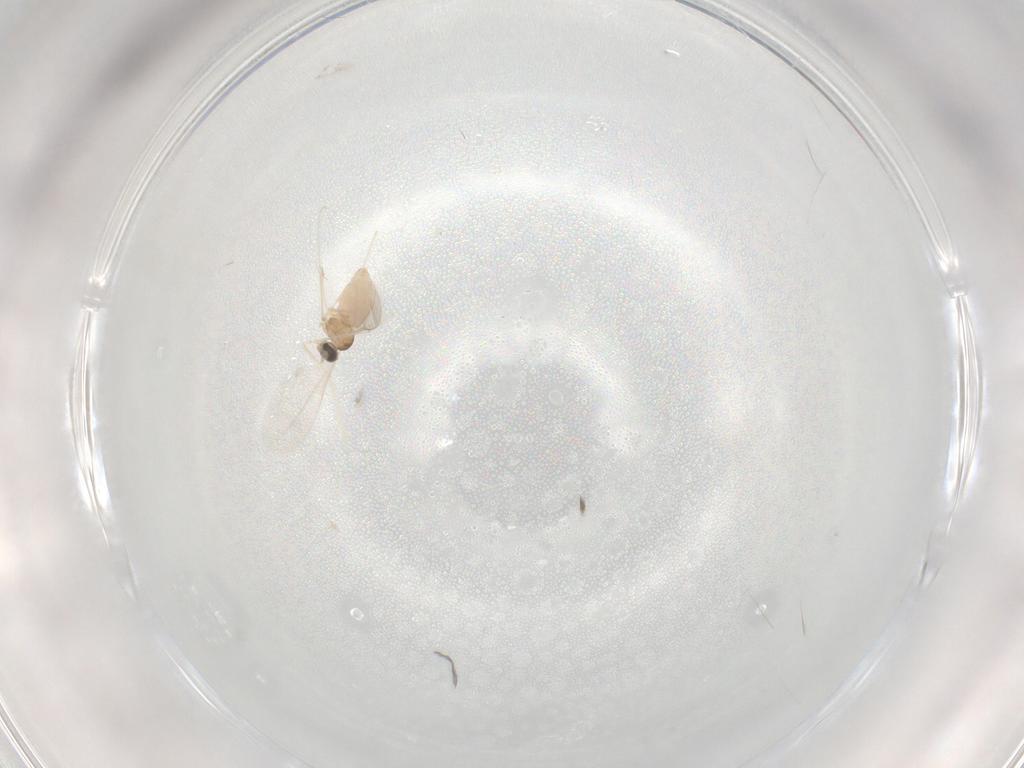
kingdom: Animalia
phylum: Arthropoda
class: Insecta
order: Diptera
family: Cecidomyiidae
